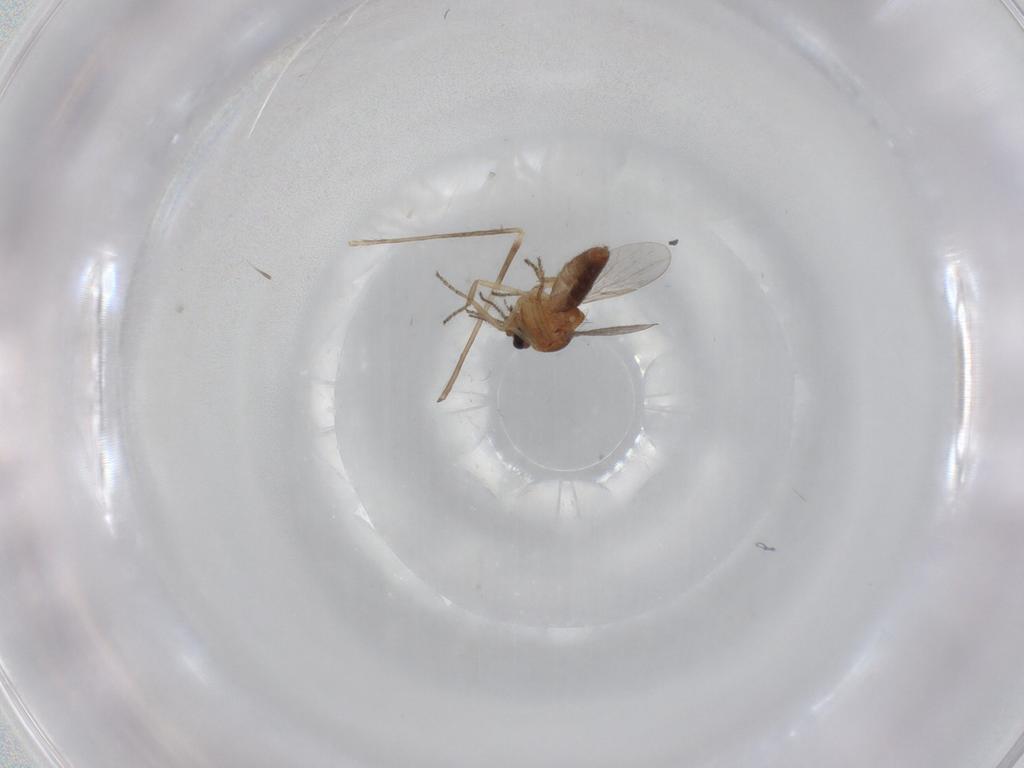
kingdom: Animalia
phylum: Arthropoda
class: Insecta
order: Diptera
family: Ceratopogonidae
